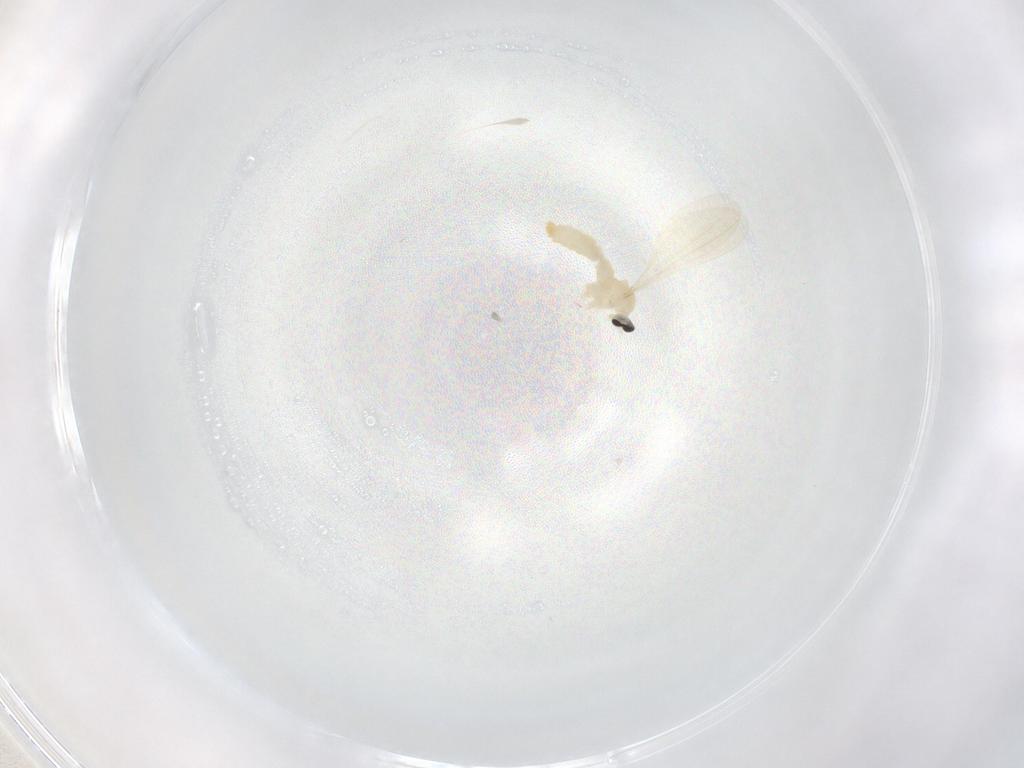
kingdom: Animalia
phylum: Arthropoda
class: Insecta
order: Diptera
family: Cecidomyiidae
